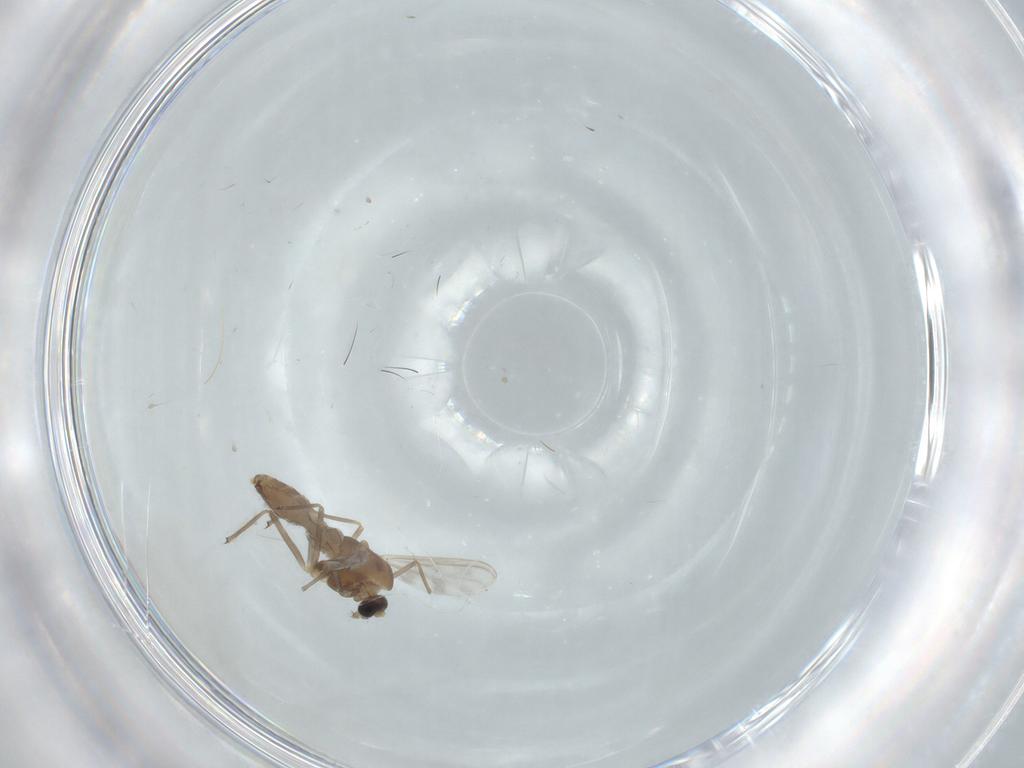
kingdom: Animalia
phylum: Arthropoda
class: Insecta
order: Diptera
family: Chironomidae
